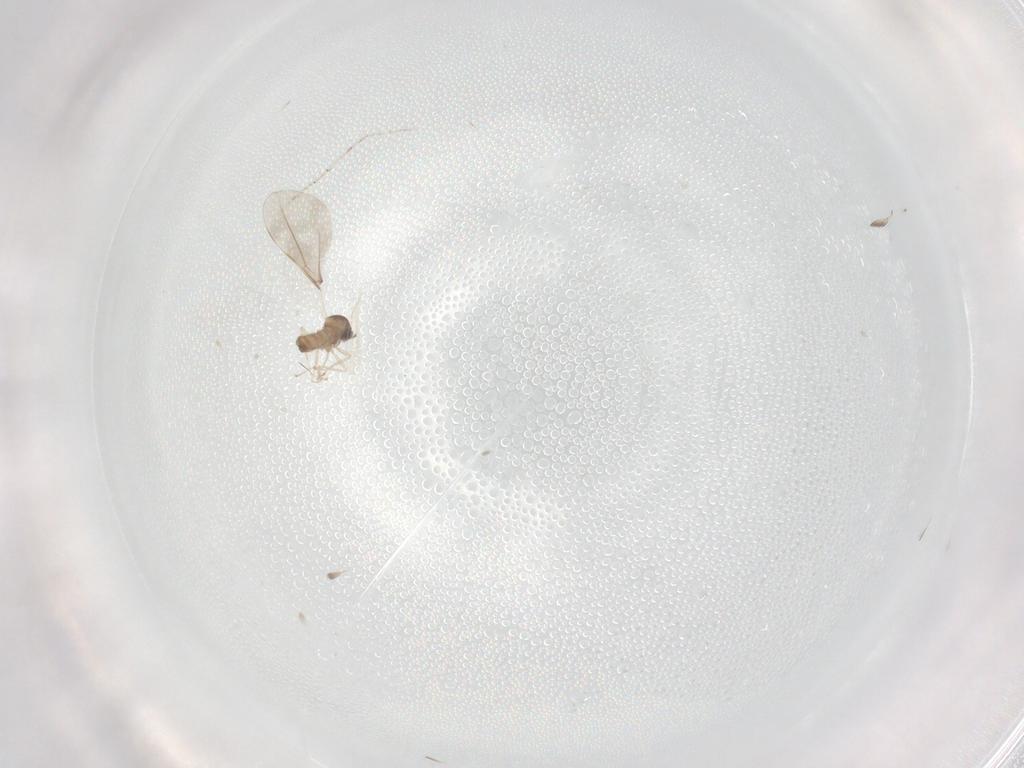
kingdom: Animalia
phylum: Arthropoda
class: Insecta
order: Diptera
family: Cecidomyiidae
